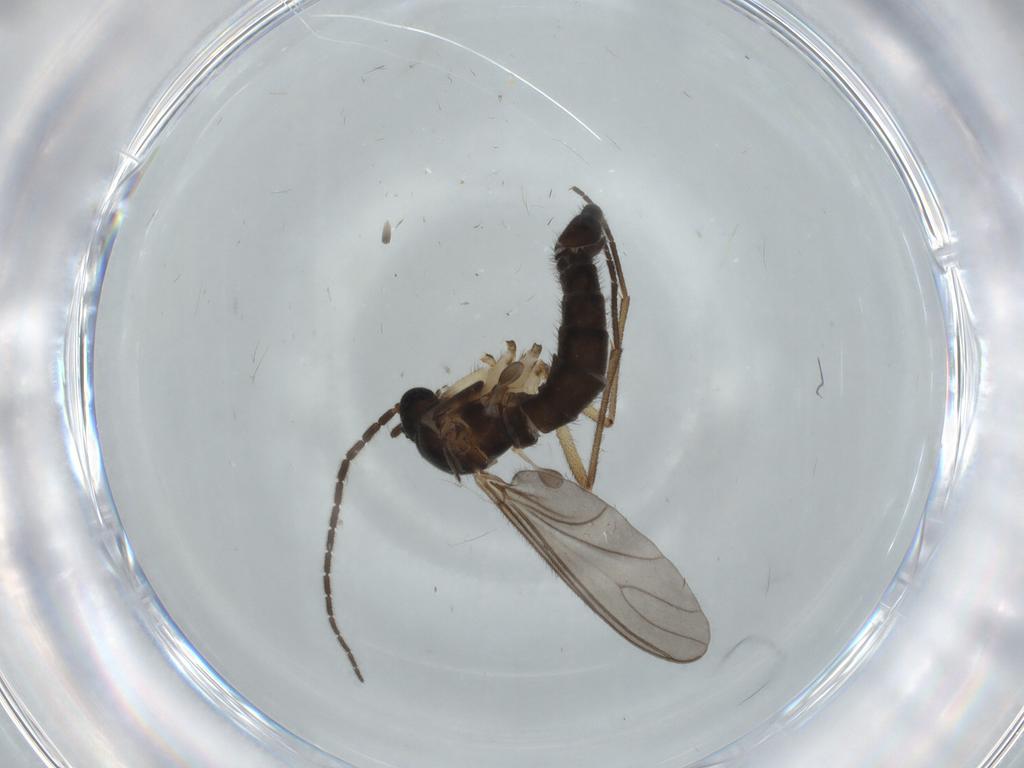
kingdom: Animalia
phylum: Arthropoda
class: Insecta
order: Diptera
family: Sciaridae
